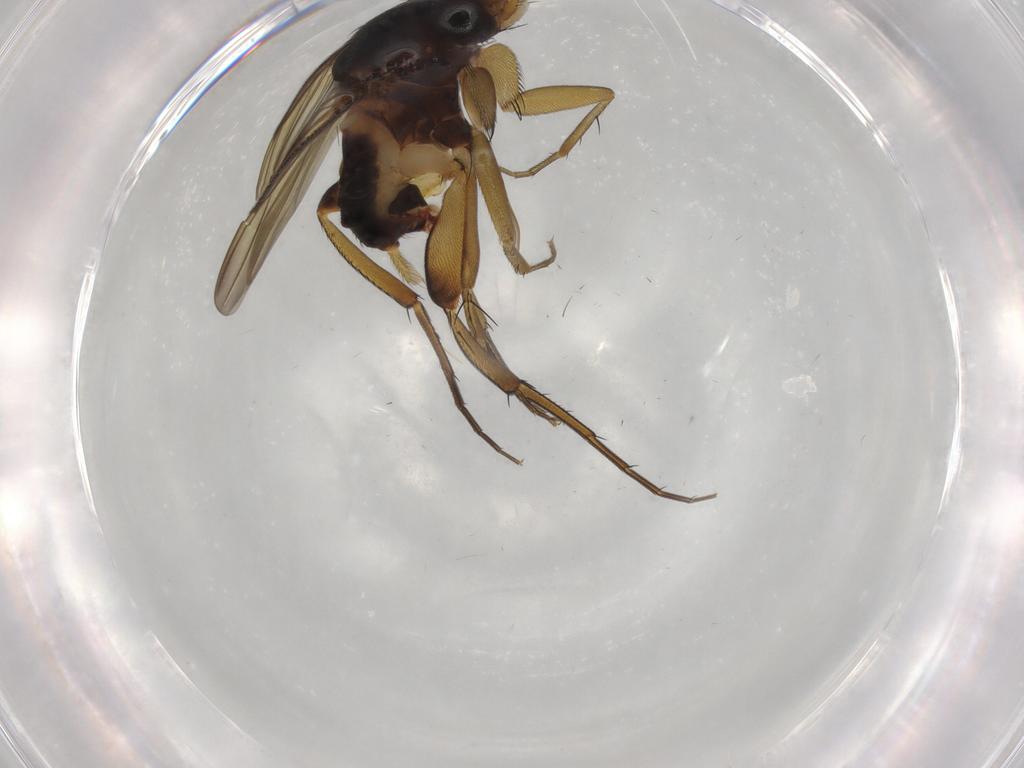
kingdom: Animalia
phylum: Arthropoda
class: Insecta
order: Diptera
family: Phoridae
